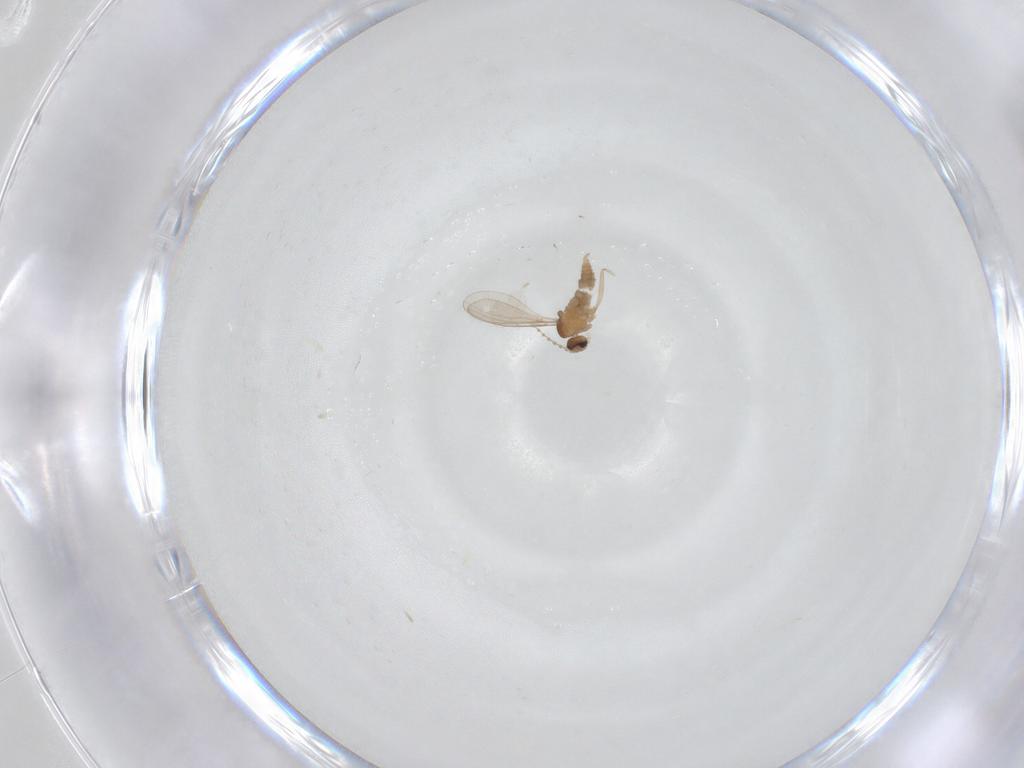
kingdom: Animalia
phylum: Arthropoda
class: Insecta
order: Diptera
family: Cecidomyiidae
